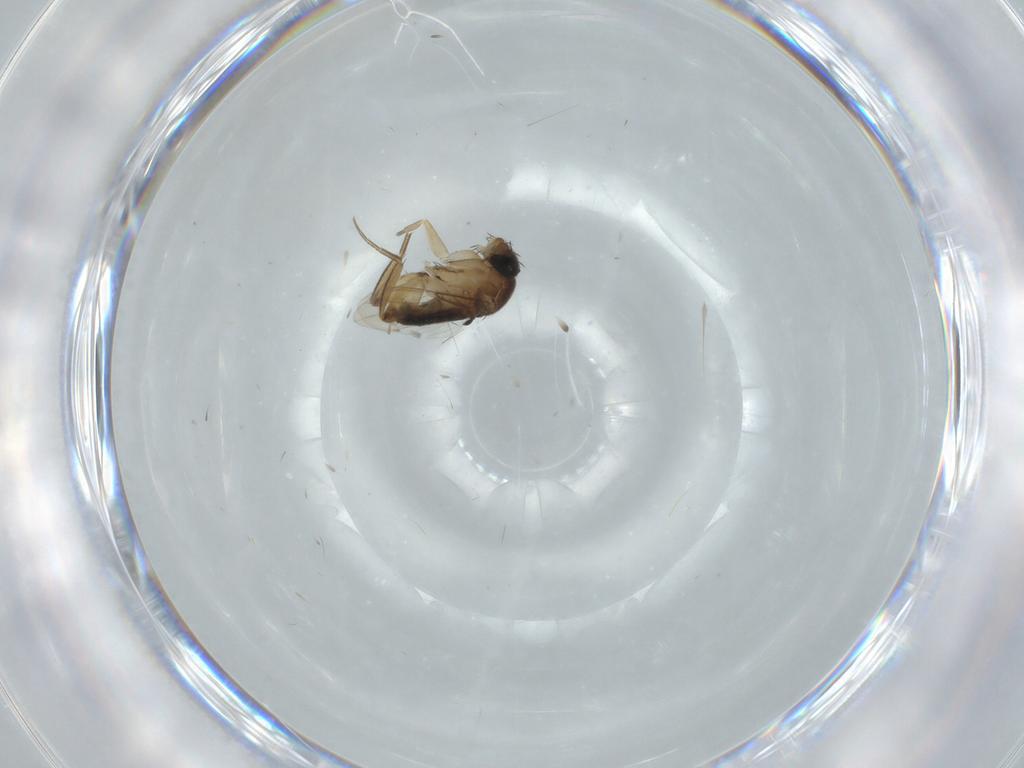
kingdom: Animalia
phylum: Arthropoda
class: Insecta
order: Diptera
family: Phoridae
